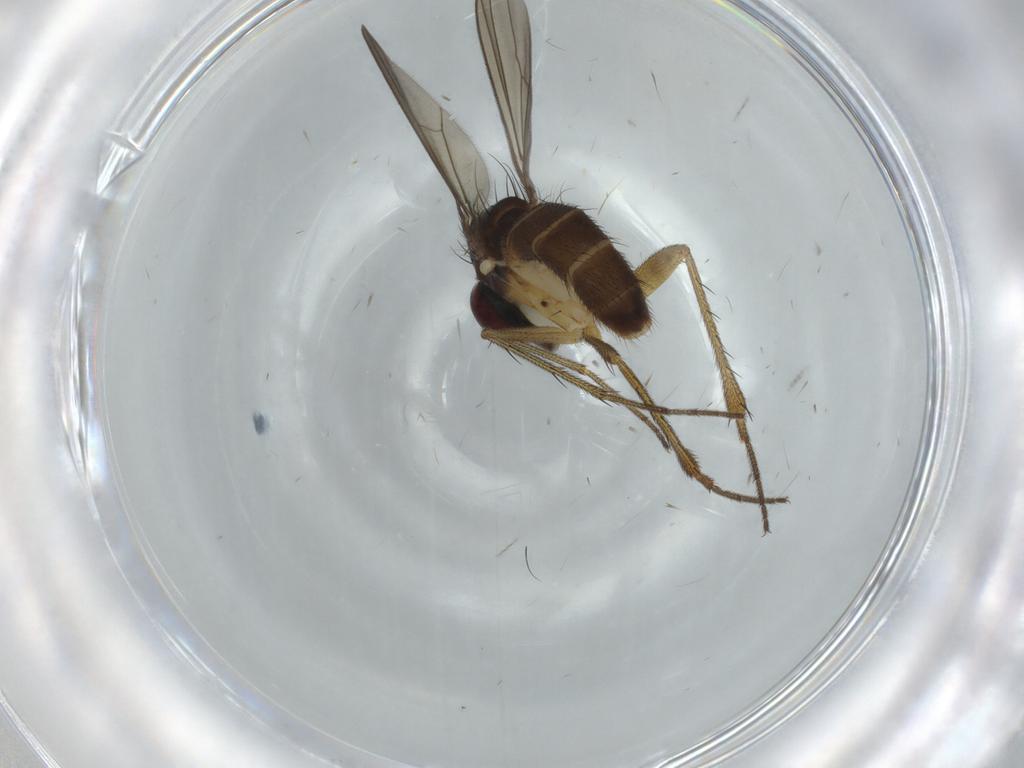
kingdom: Animalia
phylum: Arthropoda
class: Insecta
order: Diptera
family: Dolichopodidae
